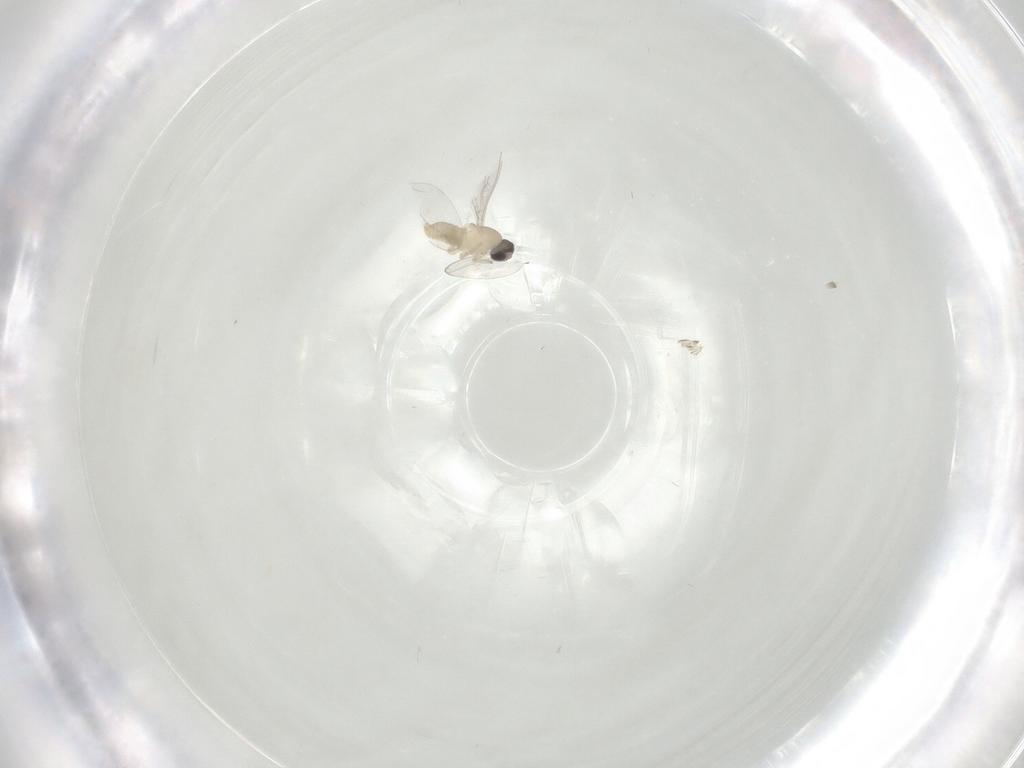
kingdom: Animalia
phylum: Arthropoda
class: Insecta
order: Diptera
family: Cecidomyiidae
